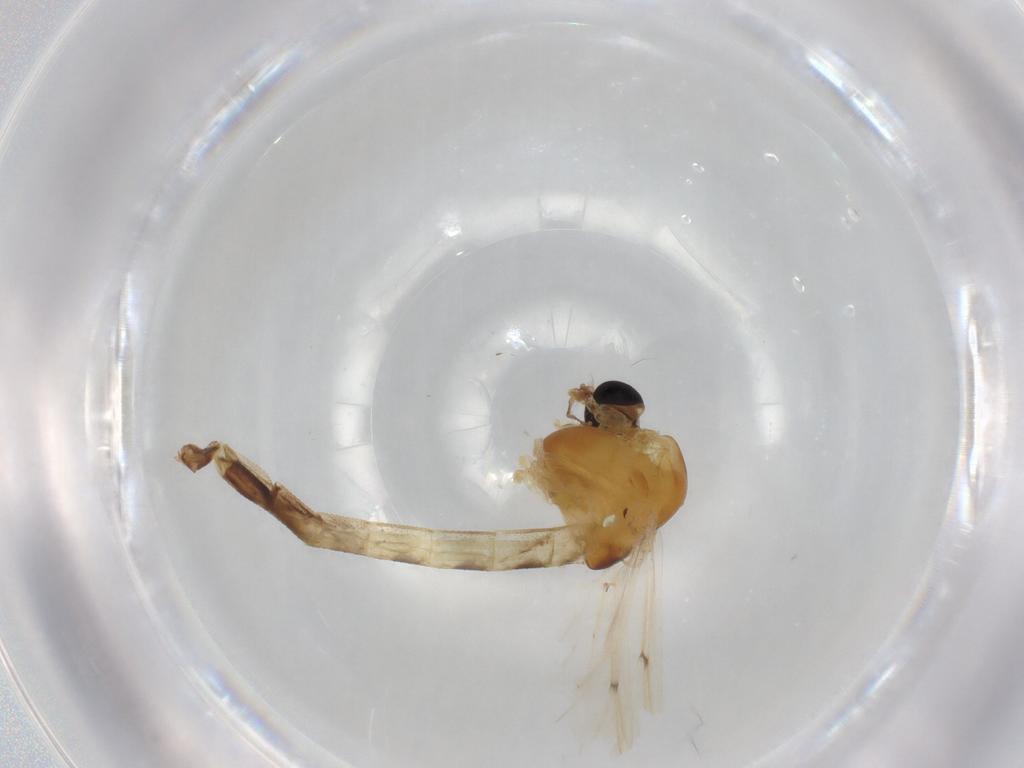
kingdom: Animalia
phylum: Arthropoda
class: Insecta
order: Diptera
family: Chironomidae
